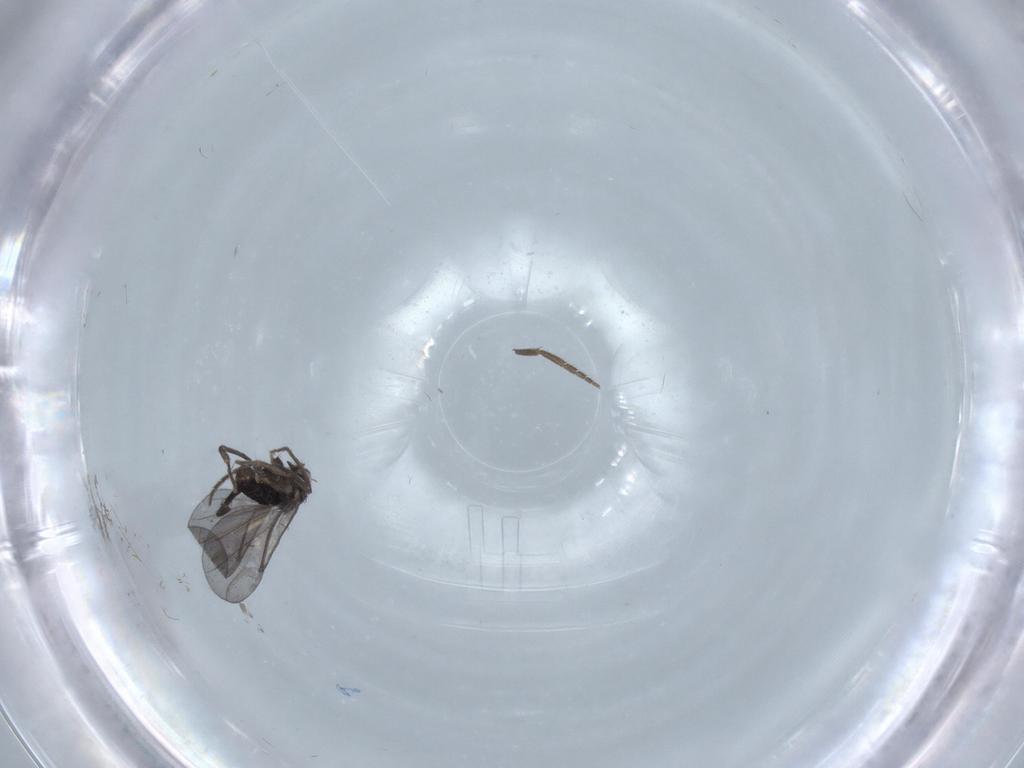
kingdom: Animalia
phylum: Arthropoda
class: Insecta
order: Diptera
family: Phoridae
